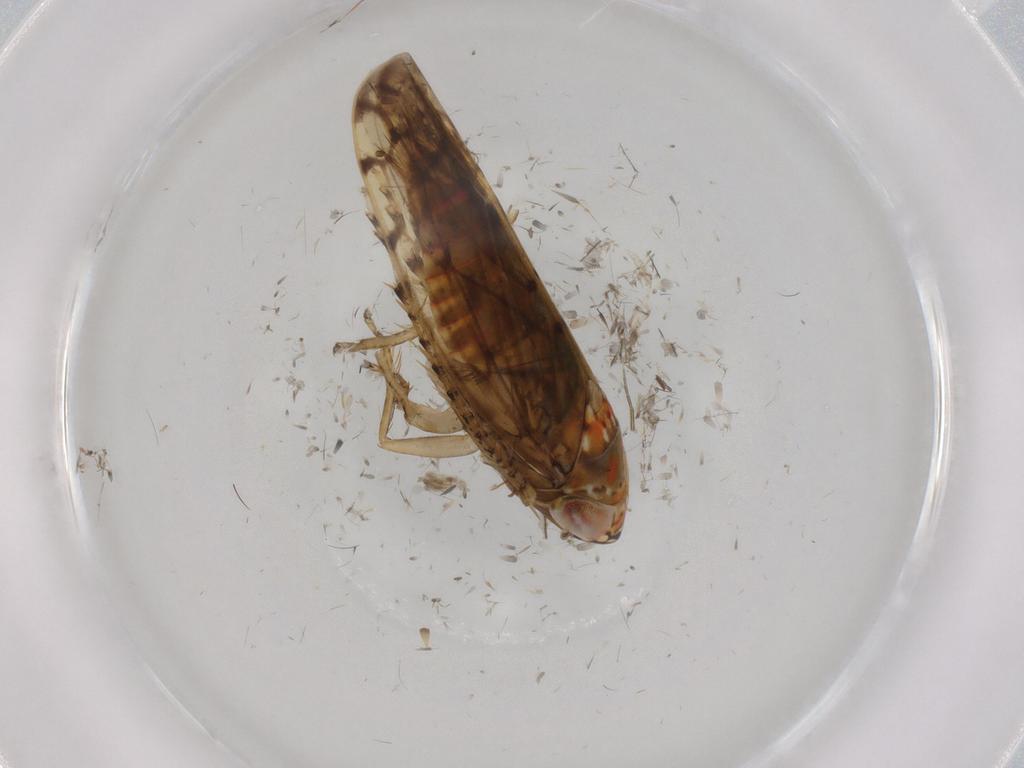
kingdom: Animalia
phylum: Arthropoda
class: Insecta
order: Hemiptera
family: Cicadellidae
